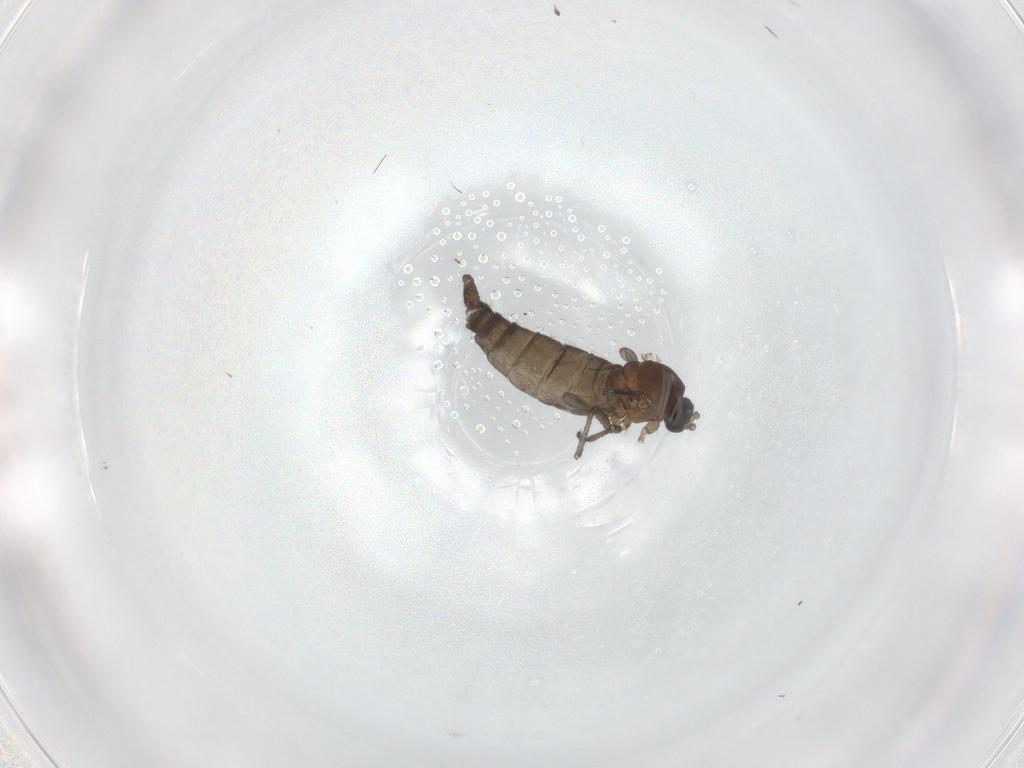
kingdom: Animalia
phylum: Arthropoda
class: Insecta
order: Diptera
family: Sciaridae
